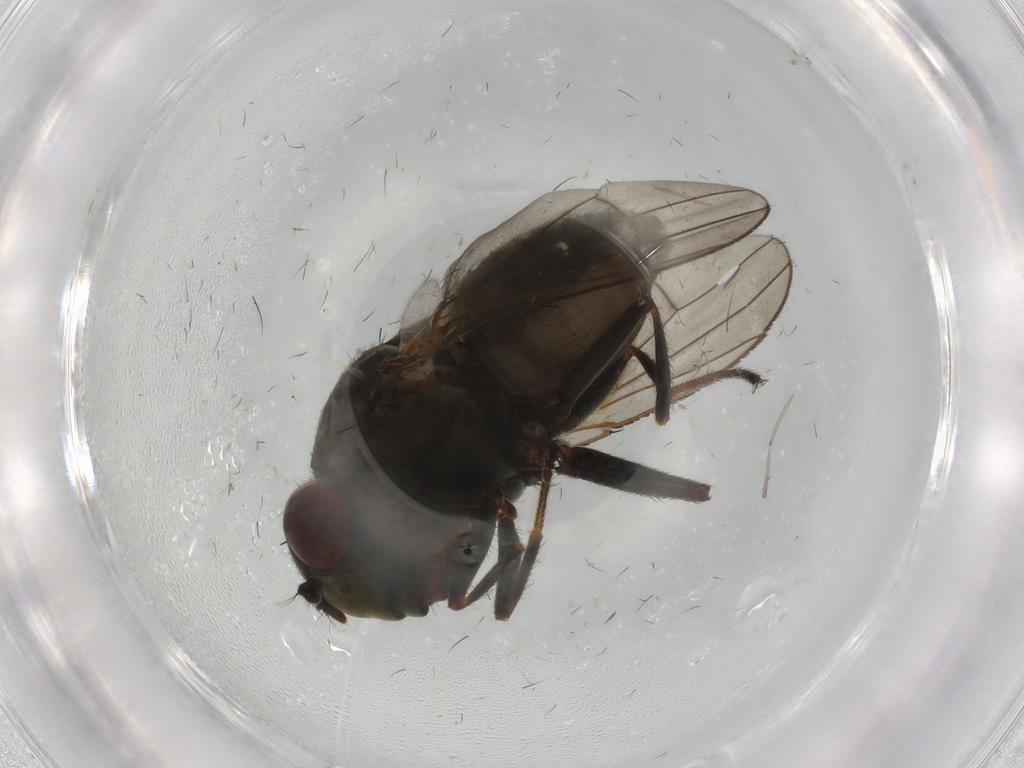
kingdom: Animalia
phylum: Arthropoda
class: Insecta
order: Diptera
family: Ephydridae
